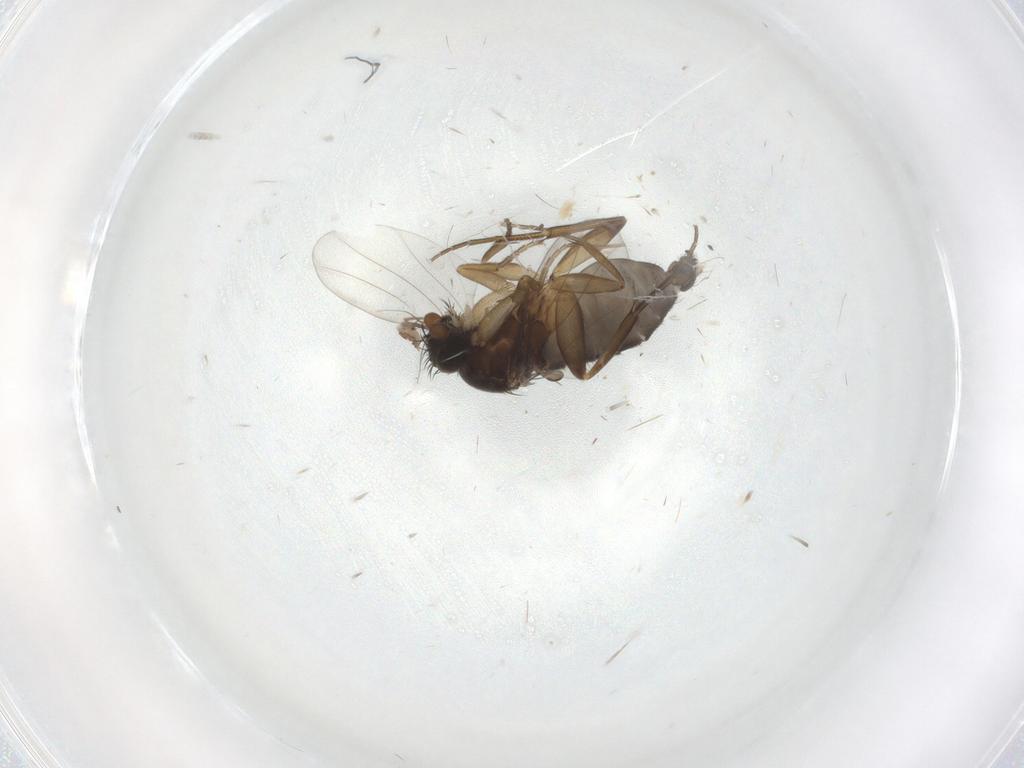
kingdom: Animalia
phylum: Arthropoda
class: Insecta
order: Diptera
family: Phoridae
